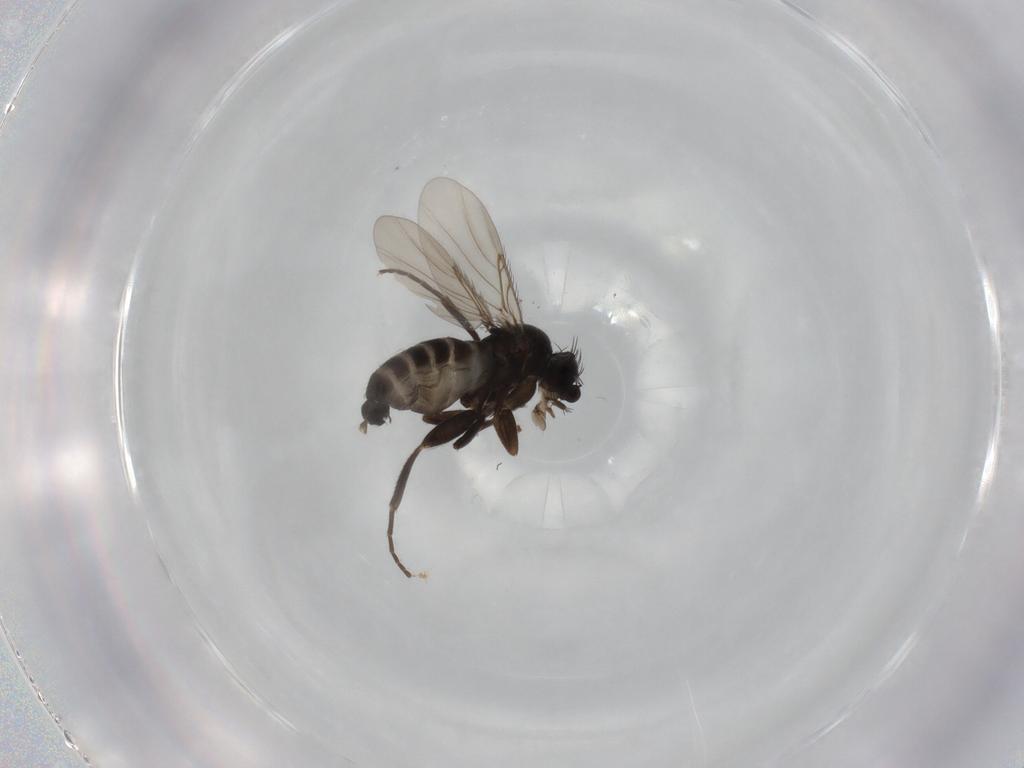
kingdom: Animalia
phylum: Arthropoda
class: Insecta
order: Diptera
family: Phoridae
